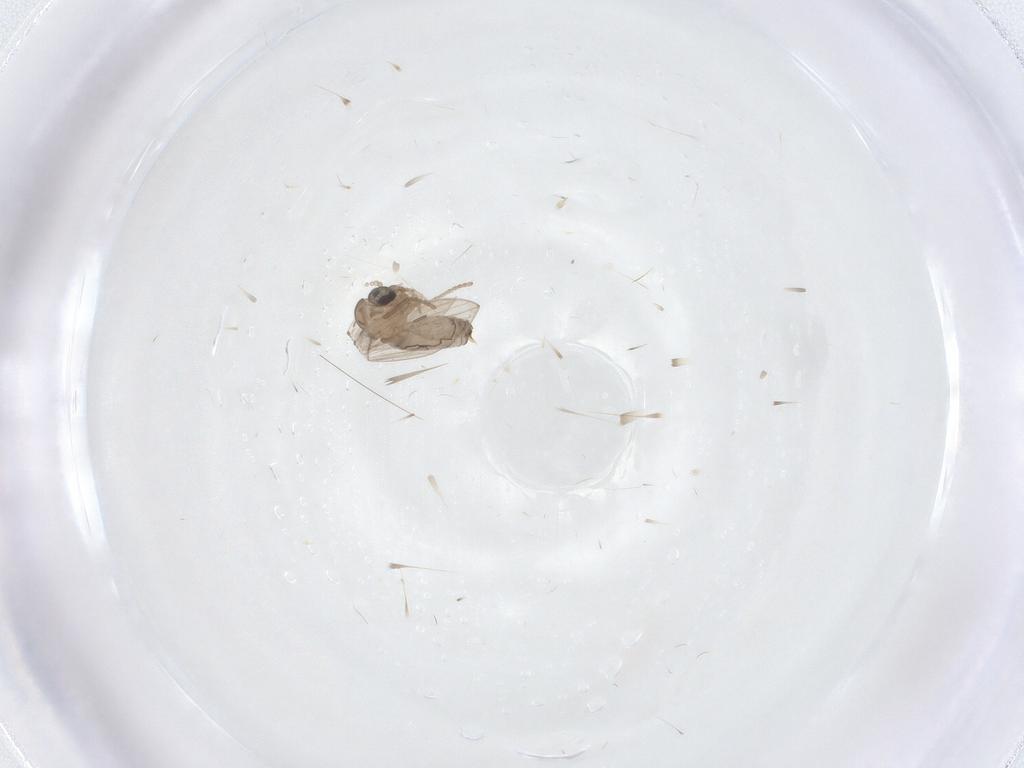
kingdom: Animalia
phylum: Arthropoda
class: Insecta
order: Diptera
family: Psychodidae
